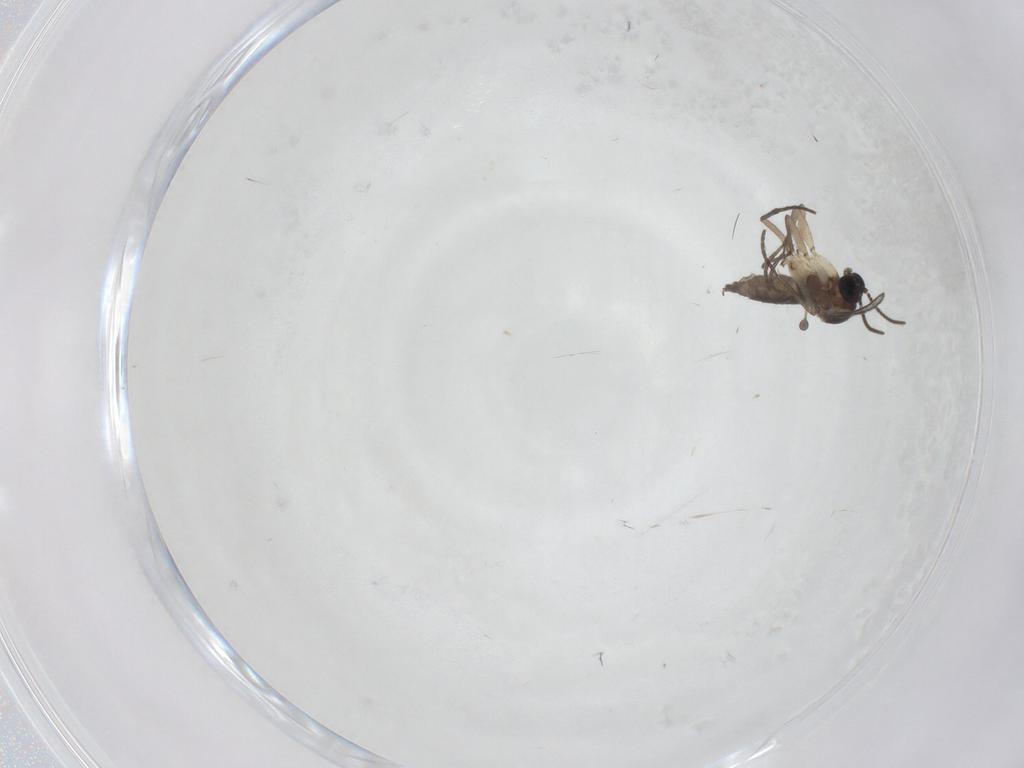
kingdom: Animalia
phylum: Arthropoda
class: Insecta
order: Diptera
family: Sciaridae
